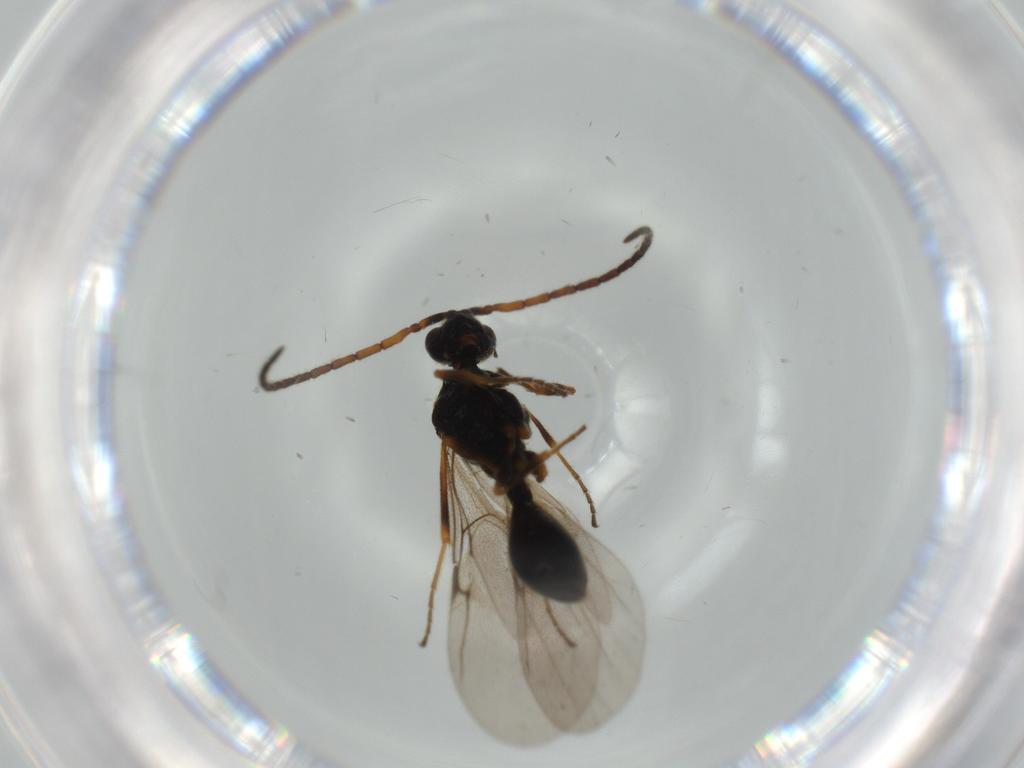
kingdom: Animalia
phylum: Arthropoda
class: Insecta
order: Hymenoptera
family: Ichneumonidae
